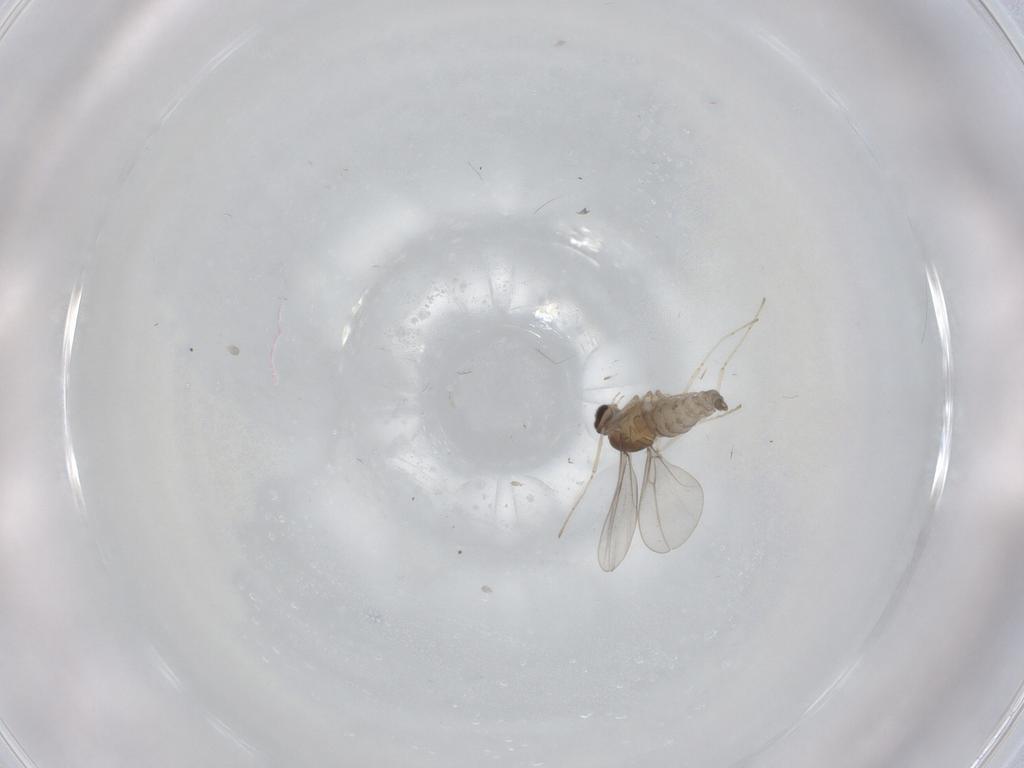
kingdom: Animalia
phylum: Arthropoda
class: Insecta
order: Diptera
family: Cecidomyiidae
